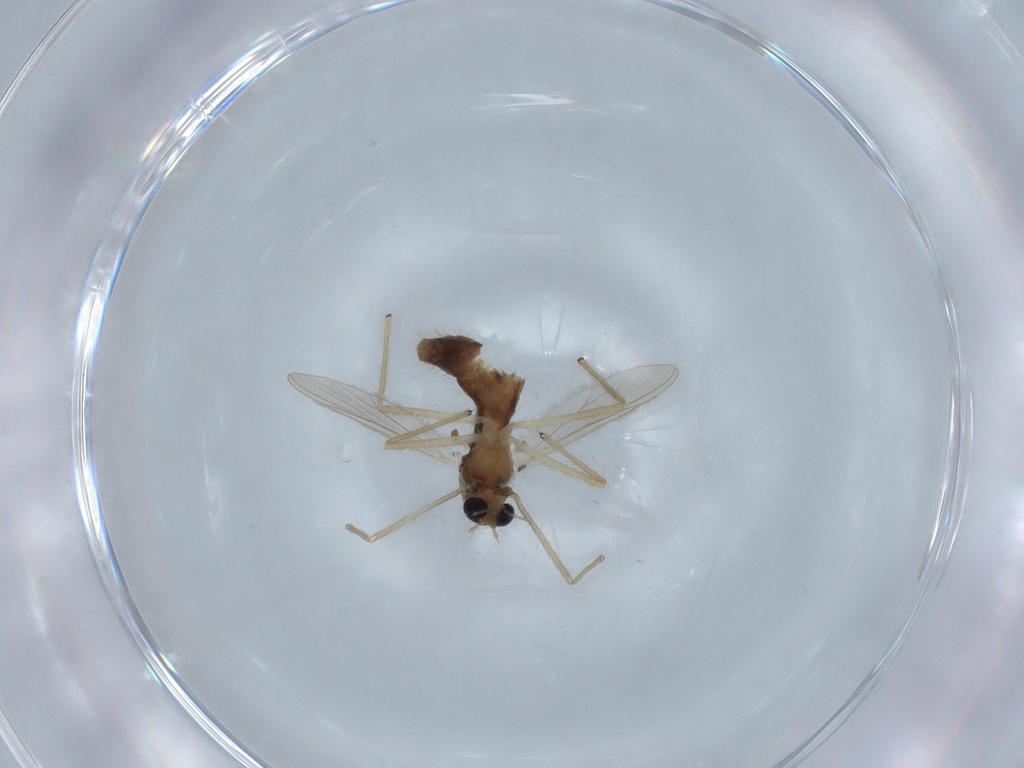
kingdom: Animalia
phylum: Arthropoda
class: Insecta
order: Diptera
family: Chironomidae
